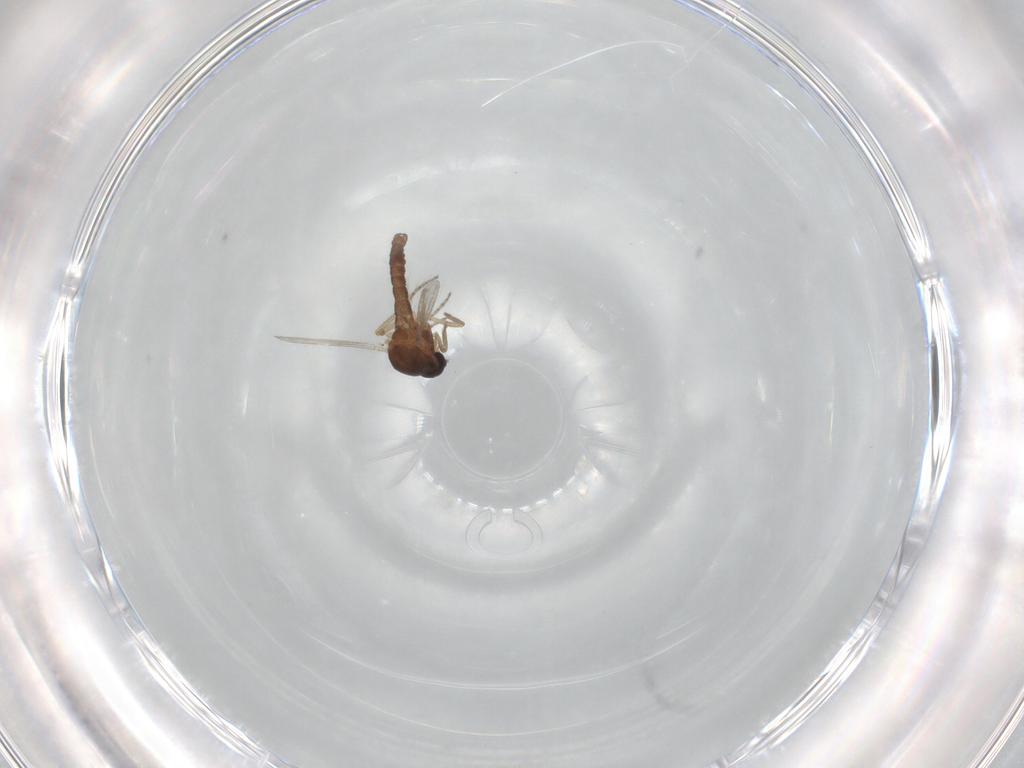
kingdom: Animalia
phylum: Arthropoda
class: Insecta
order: Diptera
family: Ceratopogonidae
